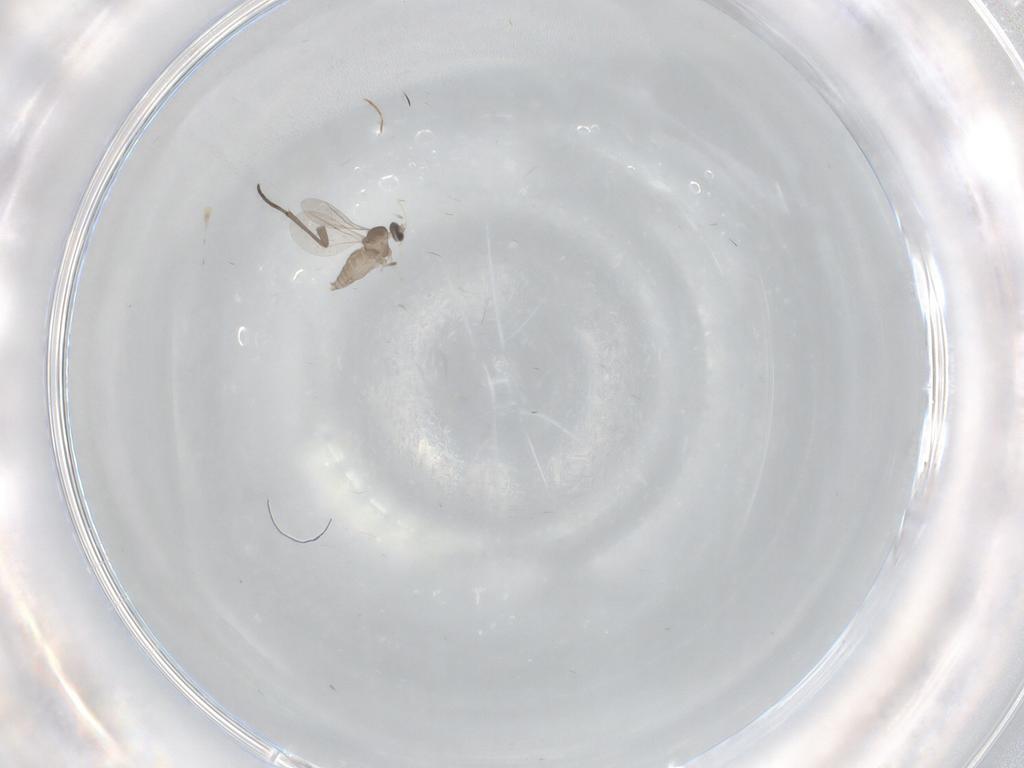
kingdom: Animalia
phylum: Arthropoda
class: Insecta
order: Diptera
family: Cecidomyiidae
